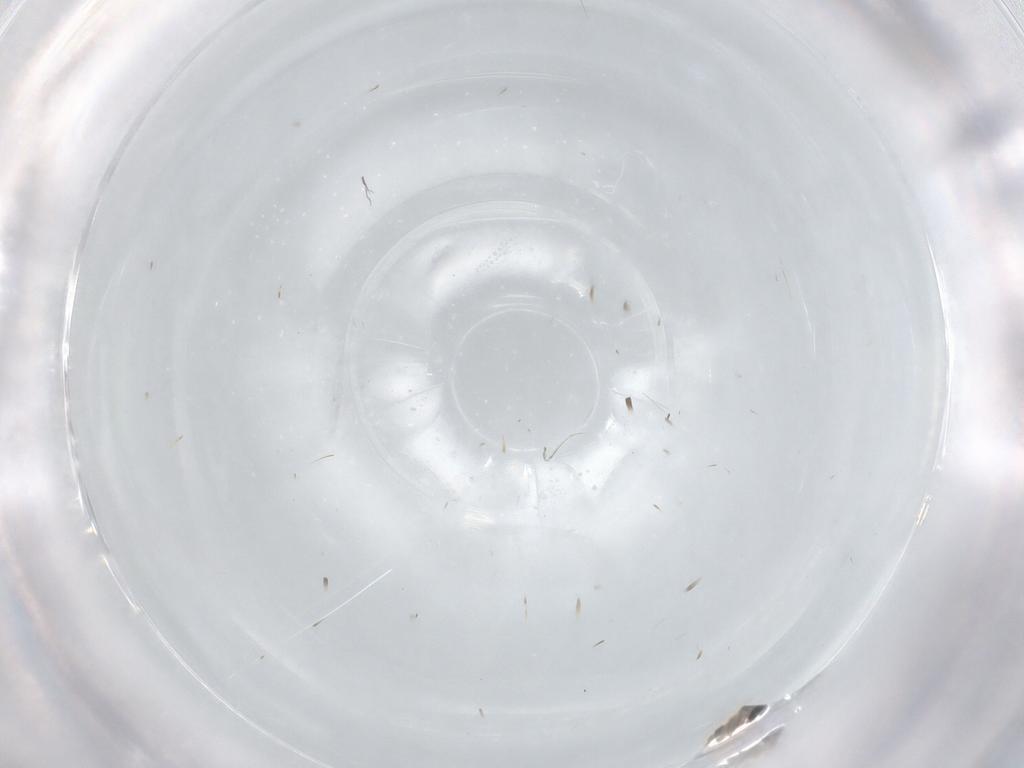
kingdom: Animalia
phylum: Arthropoda
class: Insecta
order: Diptera
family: Cecidomyiidae
